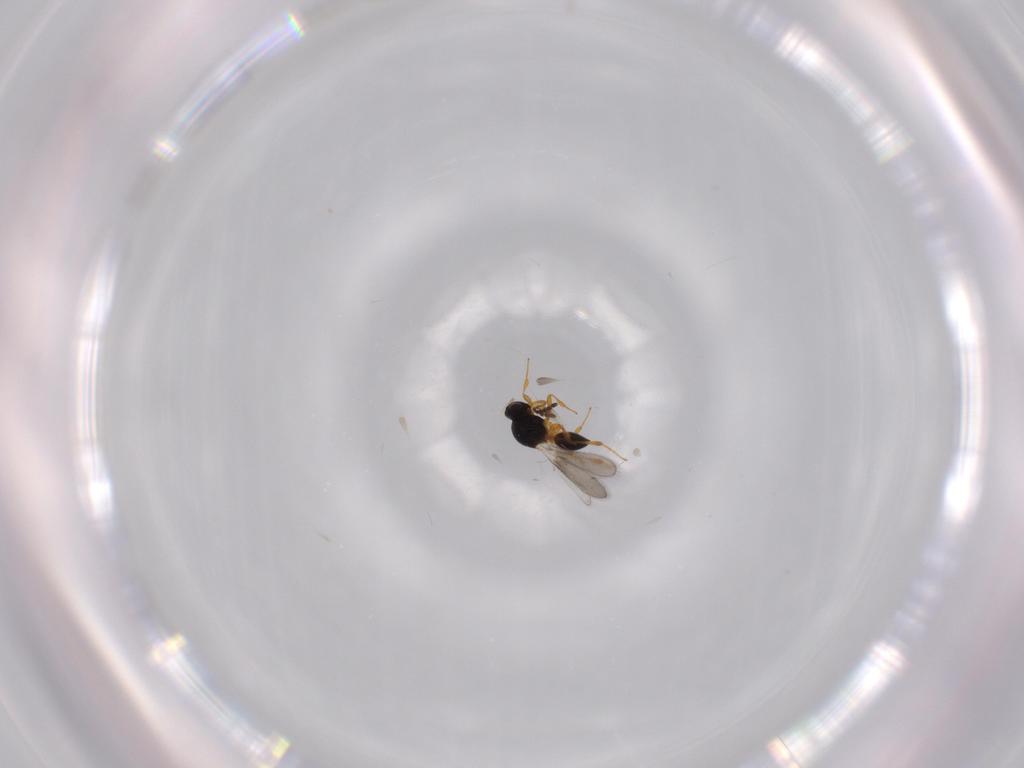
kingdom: Animalia
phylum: Arthropoda
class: Insecta
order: Hymenoptera
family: Platygastridae
